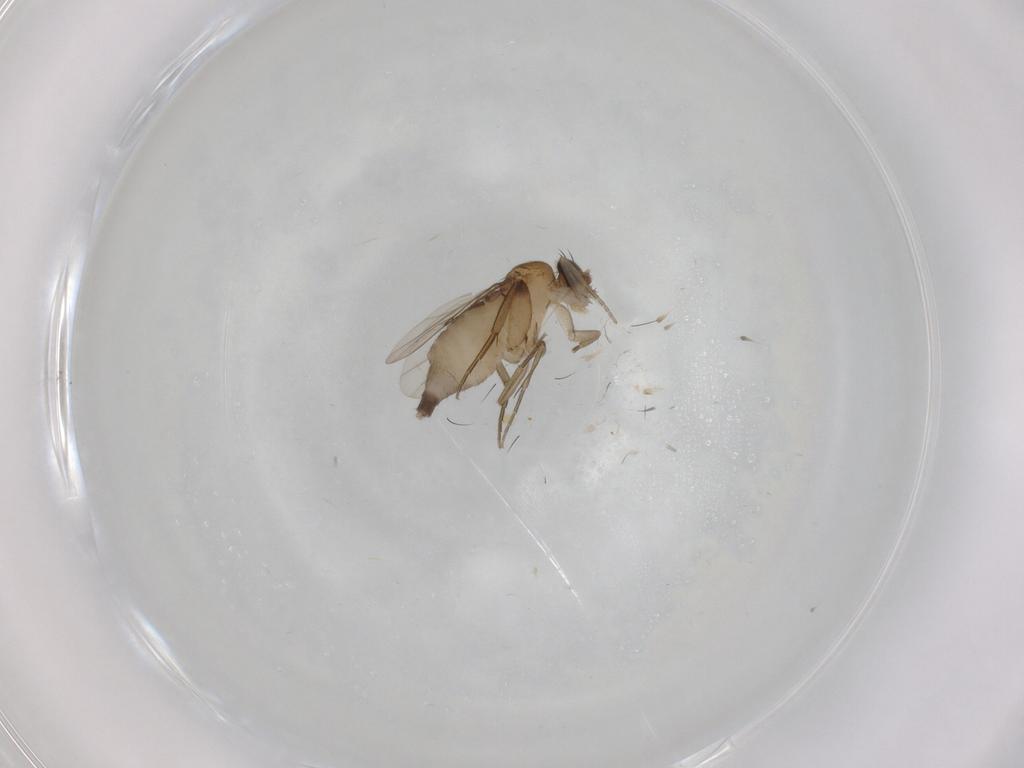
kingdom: Animalia
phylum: Arthropoda
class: Insecta
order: Diptera
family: Phoridae
